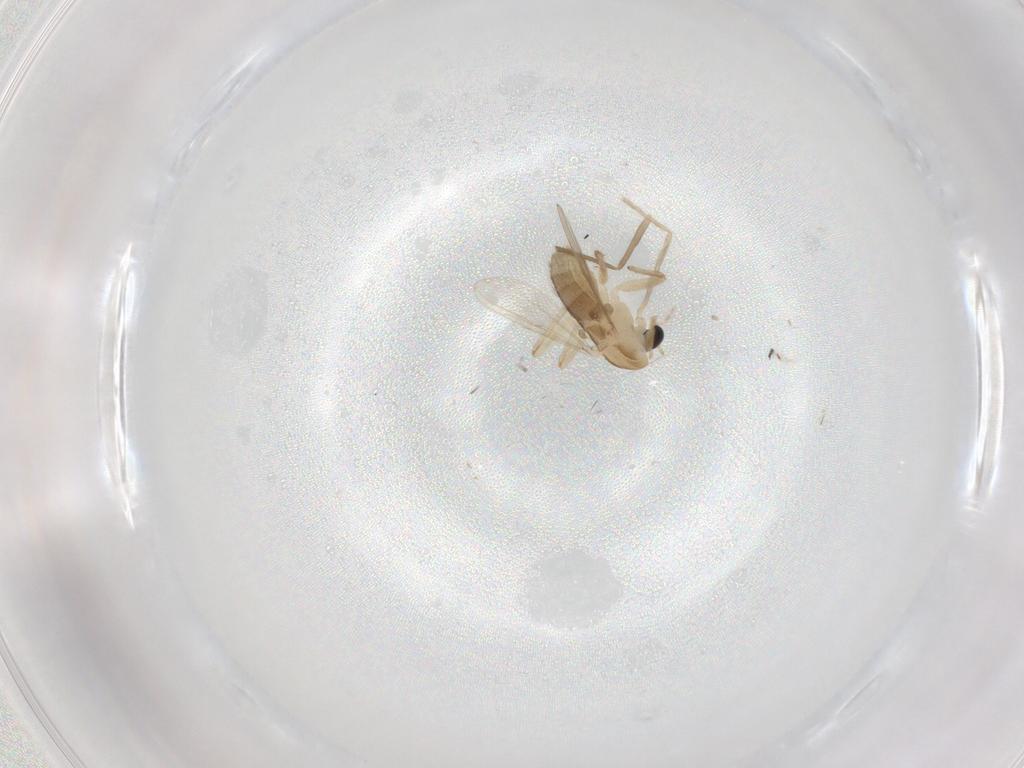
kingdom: Animalia
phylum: Arthropoda
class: Insecta
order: Diptera
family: Chironomidae
